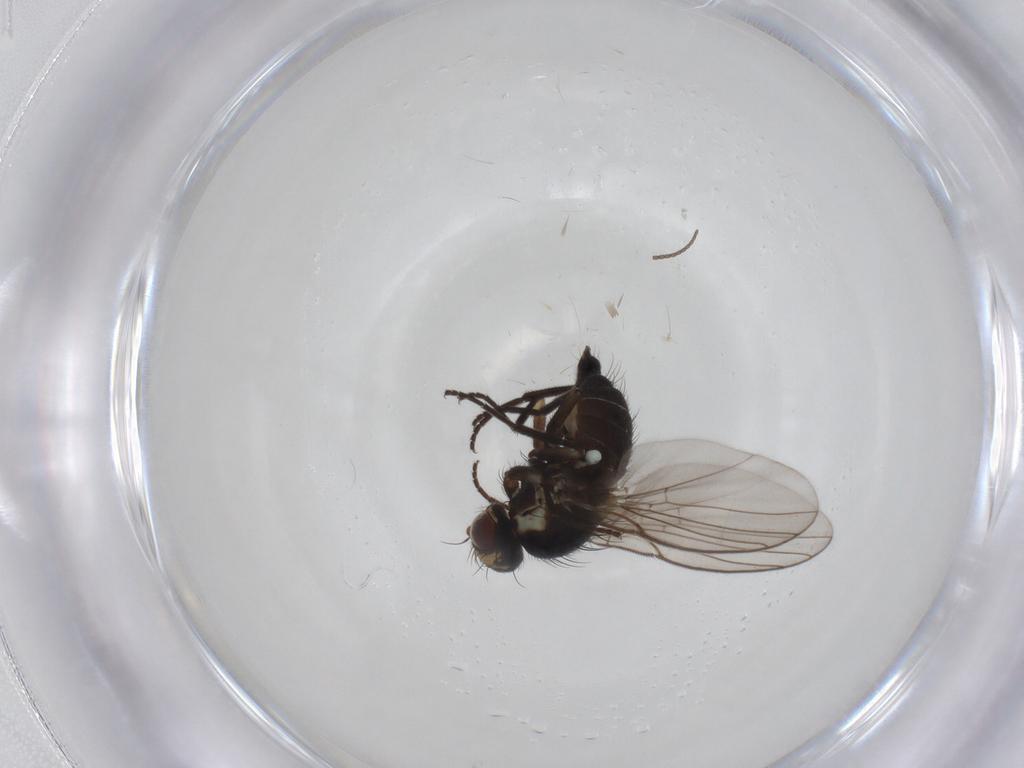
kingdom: Animalia
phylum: Arthropoda
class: Insecta
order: Diptera
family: Agromyzidae
